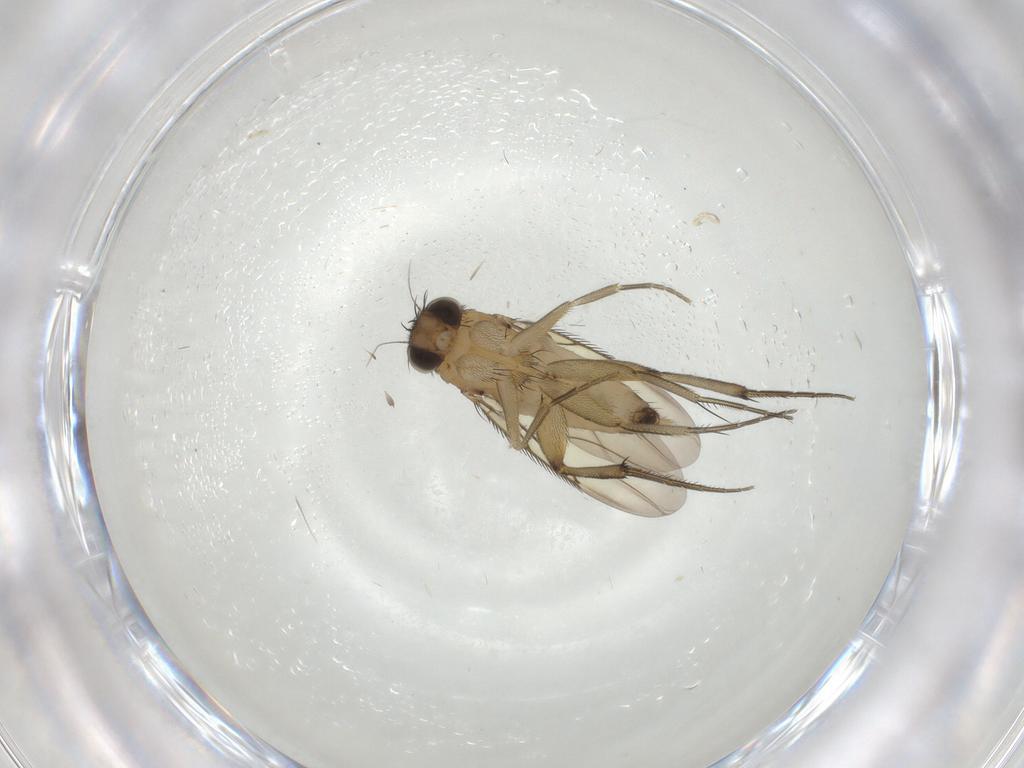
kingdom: Animalia
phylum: Arthropoda
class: Insecta
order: Diptera
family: Phoridae
